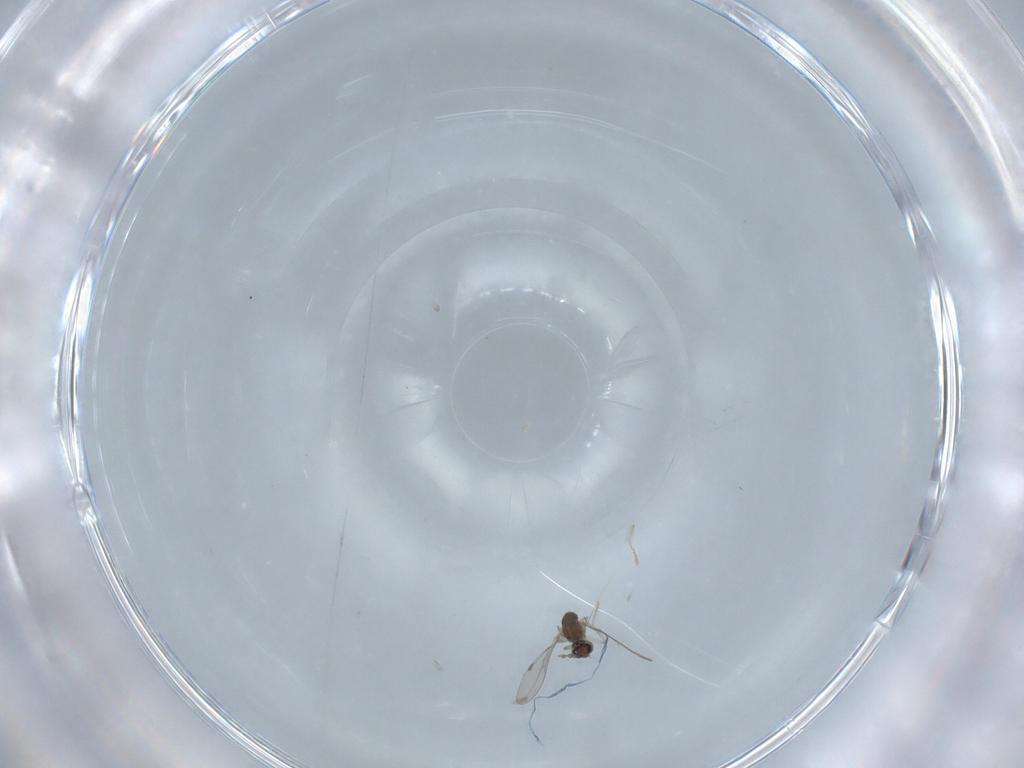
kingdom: Animalia
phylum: Arthropoda
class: Insecta
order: Diptera
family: Cecidomyiidae
